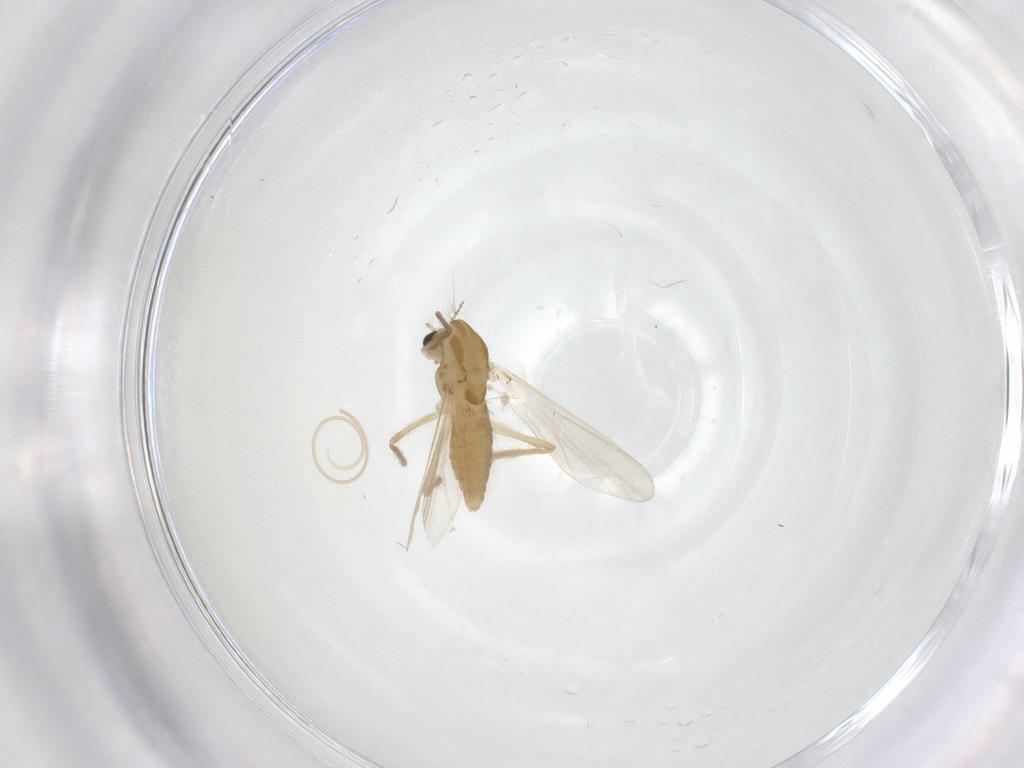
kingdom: Animalia
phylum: Arthropoda
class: Insecta
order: Diptera
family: Chironomidae
